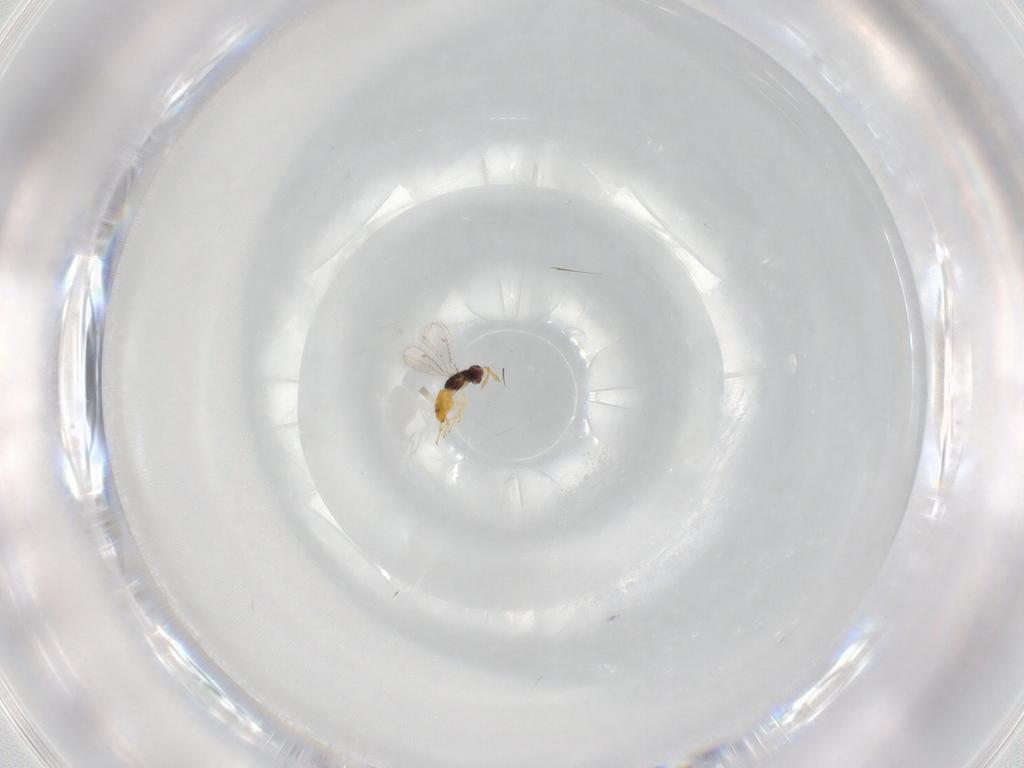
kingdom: Animalia
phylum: Arthropoda
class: Insecta
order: Hymenoptera
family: Eulophidae
